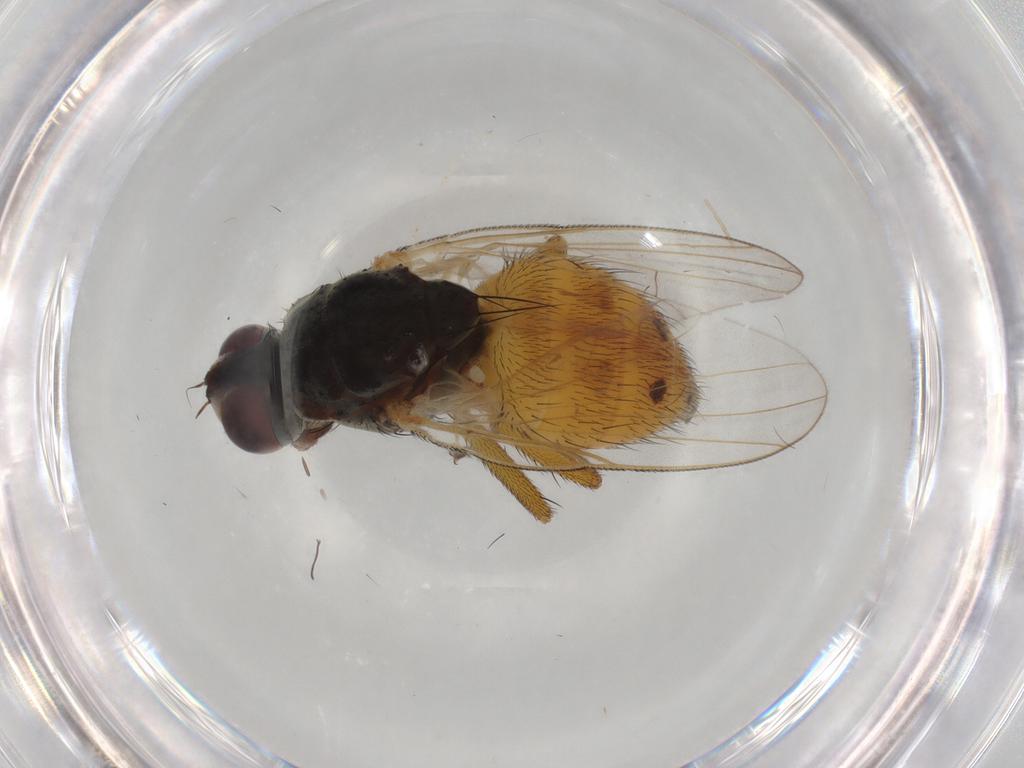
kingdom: Animalia
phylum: Arthropoda
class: Insecta
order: Diptera
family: Muscidae
